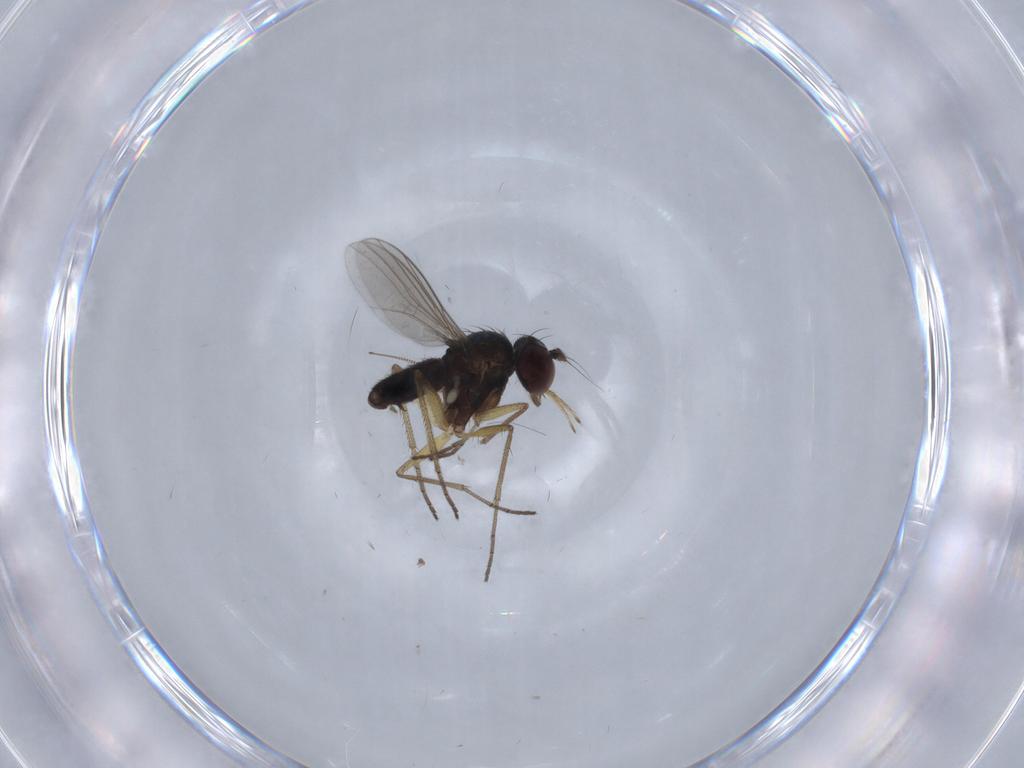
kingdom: Animalia
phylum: Arthropoda
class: Insecta
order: Diptera
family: Dolichopodidae
